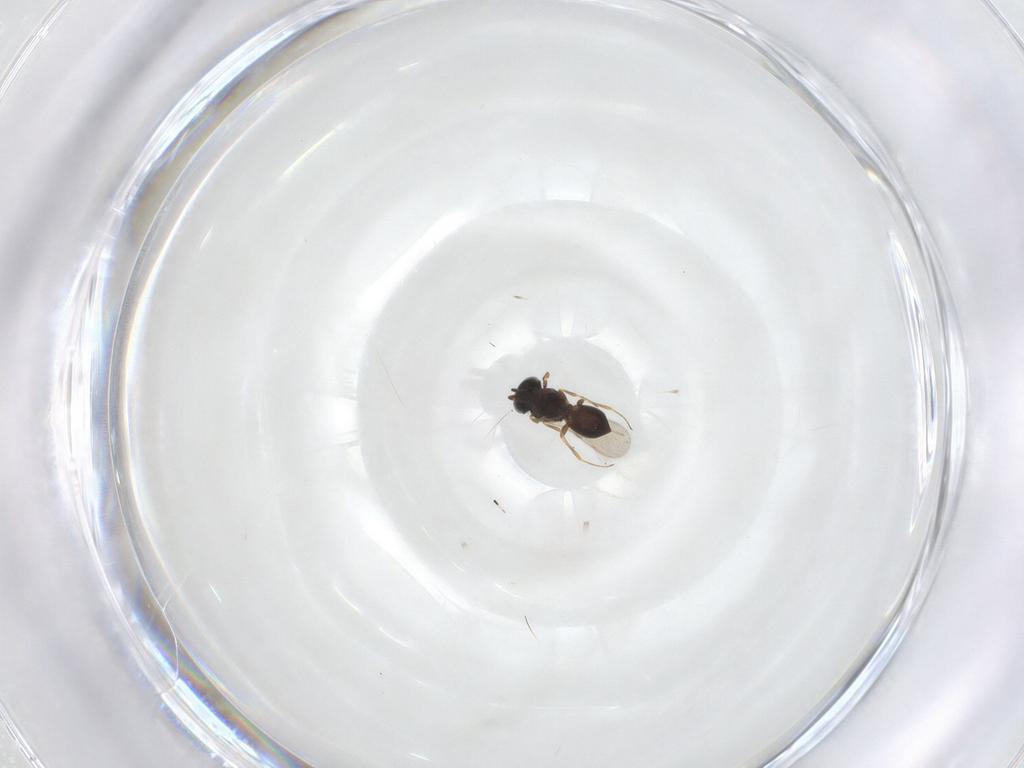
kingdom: Animalia
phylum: Arthropoda
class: Insecta
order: Hymenoptera
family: Scelionidae
